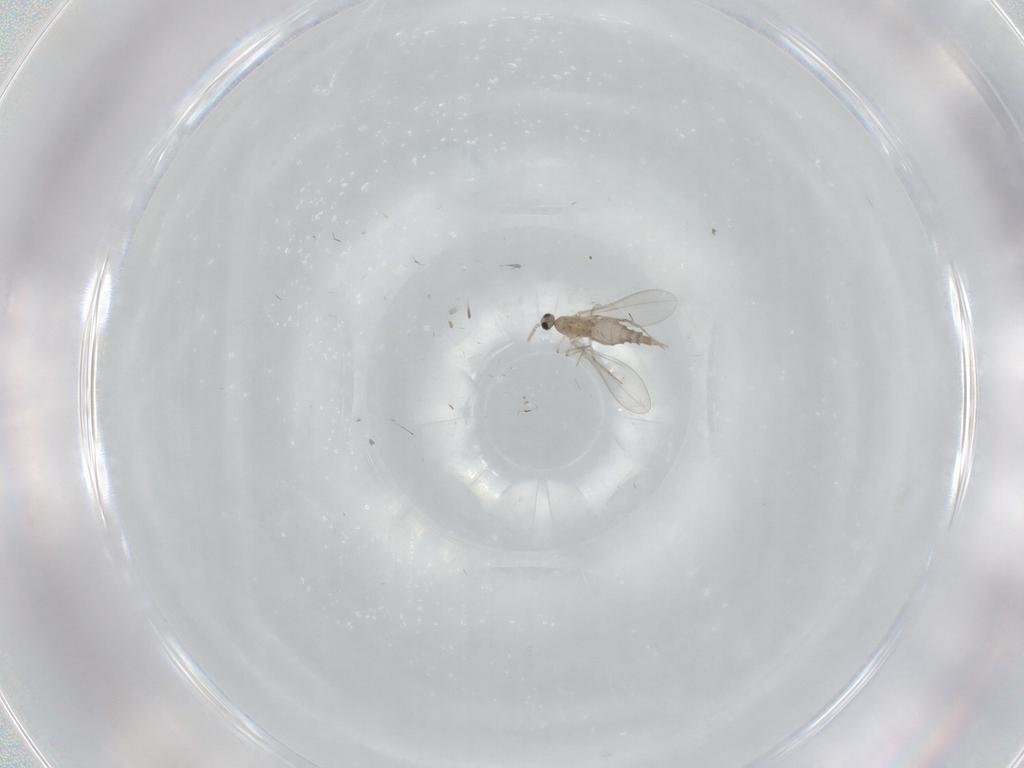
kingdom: Animalia
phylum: Arthropoda
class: Insecta
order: Diptera
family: Cecidomyiidae
